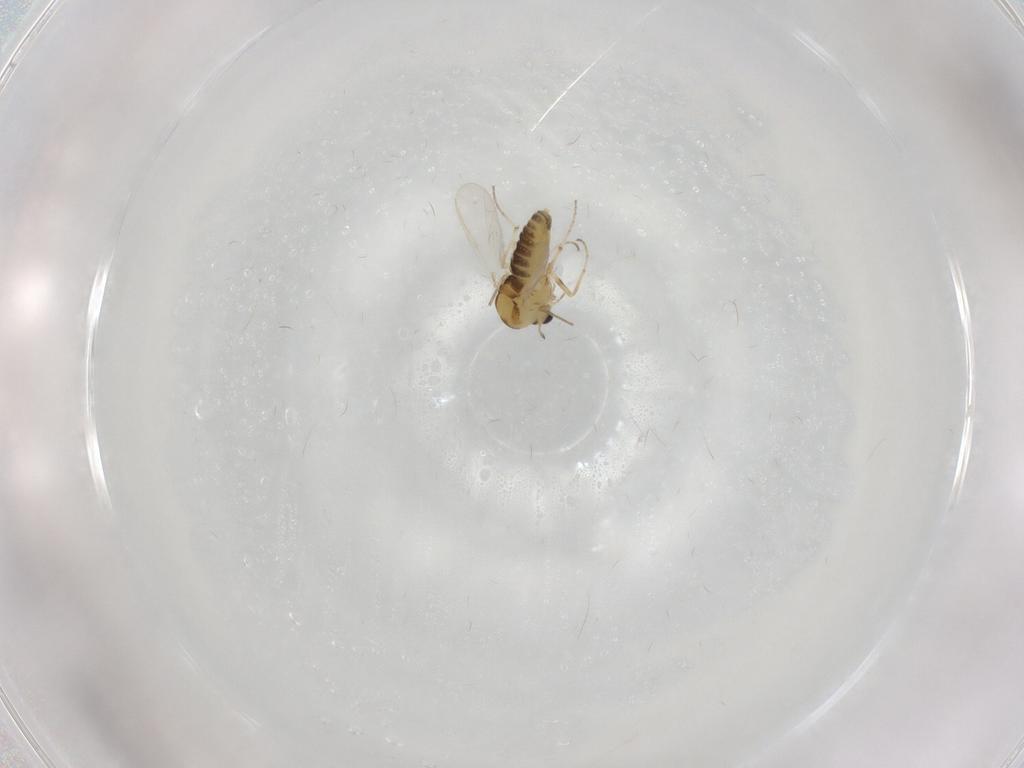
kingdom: Animalia
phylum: Arthropoda
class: Insecta
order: Diptera
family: Chironomidae
